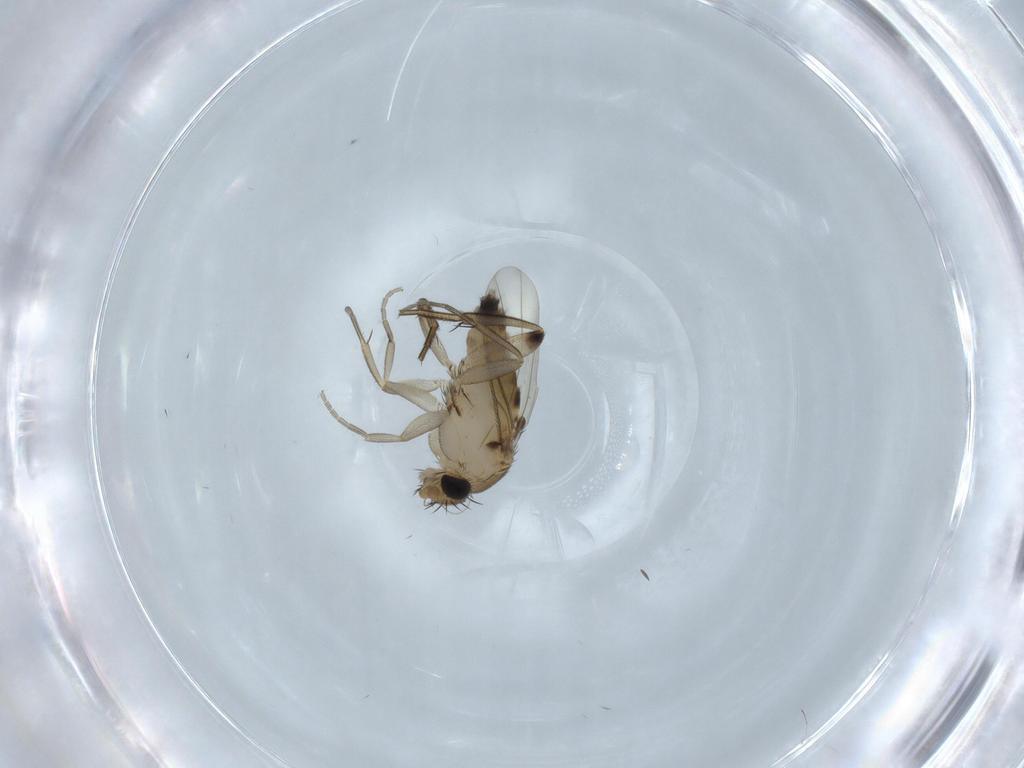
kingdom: Animalia
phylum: Arthropoda
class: Insecta
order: Diptera
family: Phoridae
